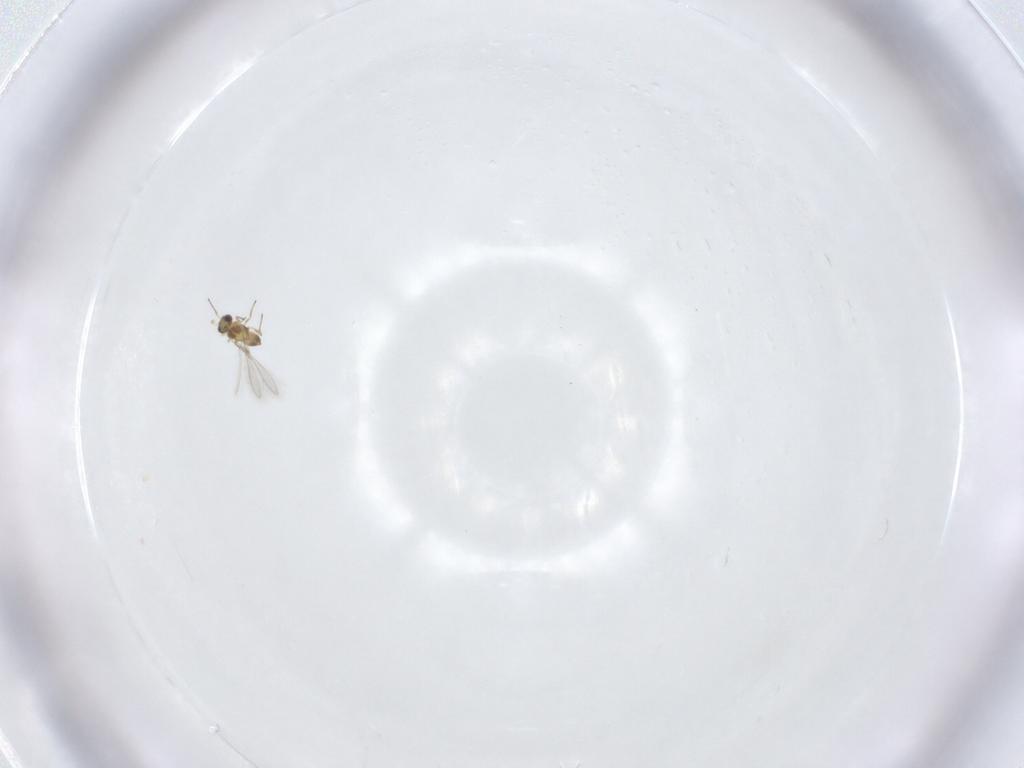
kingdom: Animalia
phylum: Arthropoda
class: Insecta
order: Hymenoptera
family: Mymaridae
